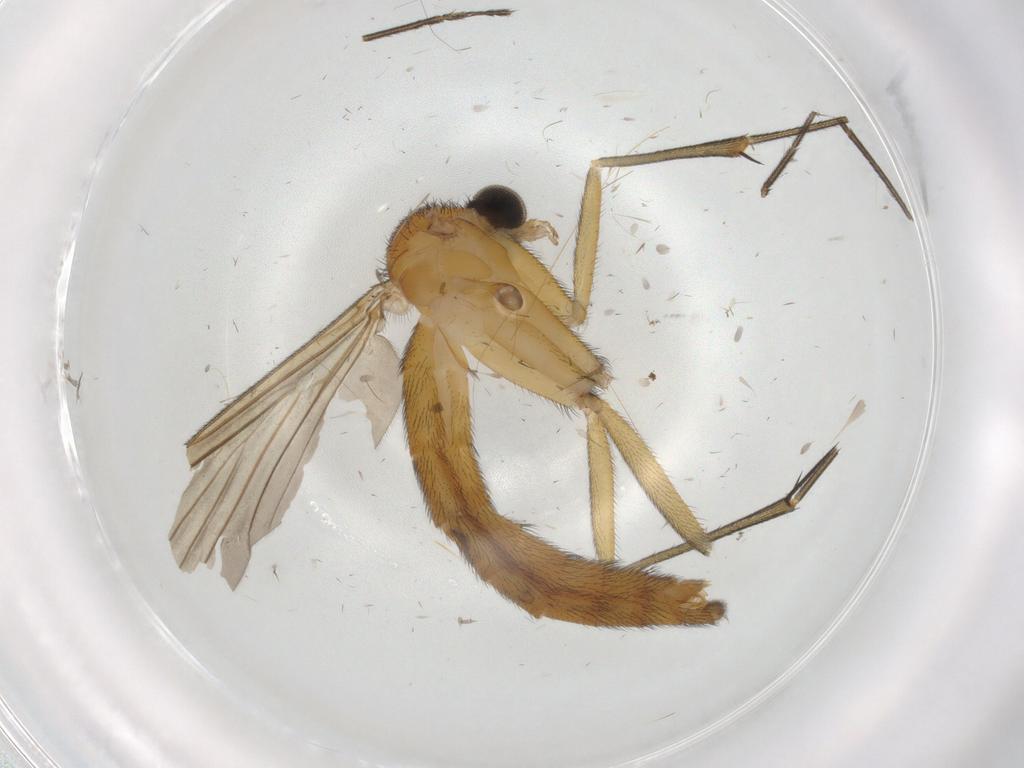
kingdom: Animalia
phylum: Arthropoda
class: Insecta
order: Diptera
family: Ceratopogonidae
